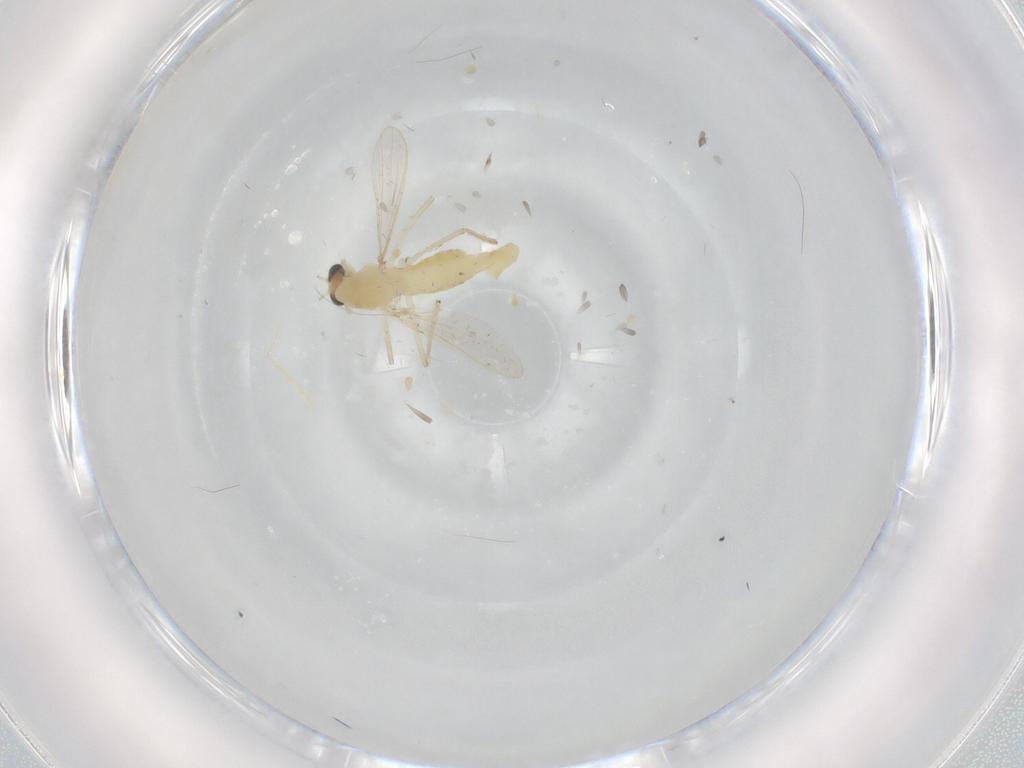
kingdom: Animalia
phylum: Arthropoda
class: Insecta
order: Diptera
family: Chironomidae
